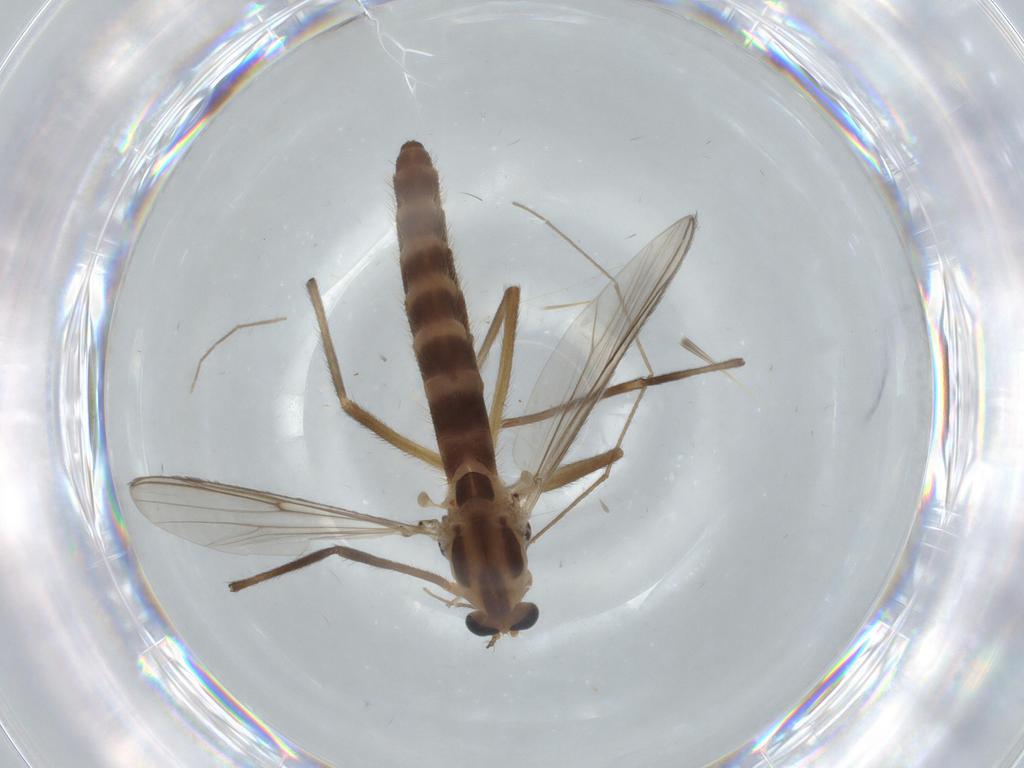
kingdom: Animalia
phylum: Arthropoda
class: Insecta
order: Diptera
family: Chironomidae
